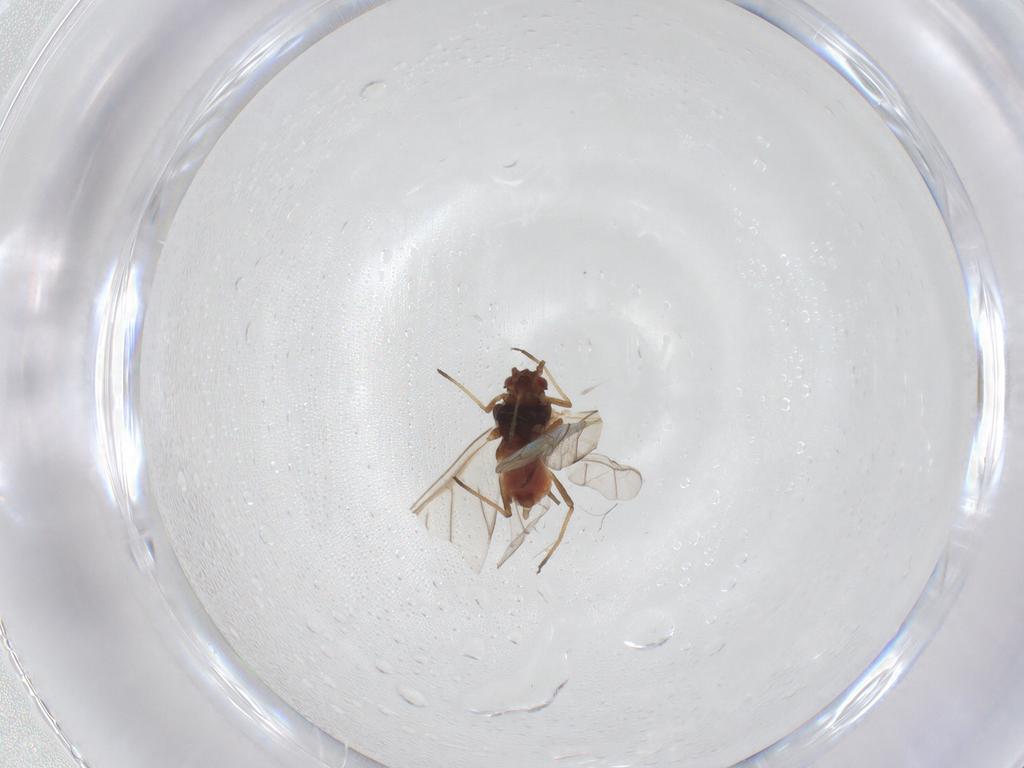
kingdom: Animalia
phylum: Arthropoda
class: Insecta
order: Hemiptera
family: Aphididae
